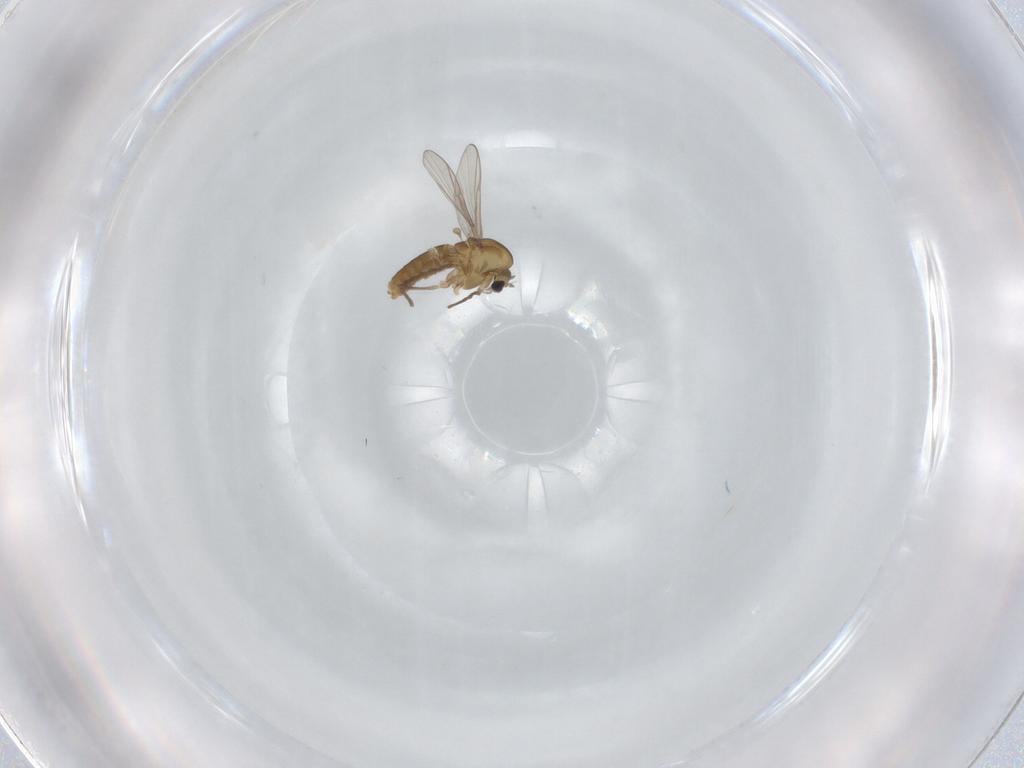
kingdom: Animalia
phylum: Arthropoda
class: Insecta
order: Diptera
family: Chironomidae
